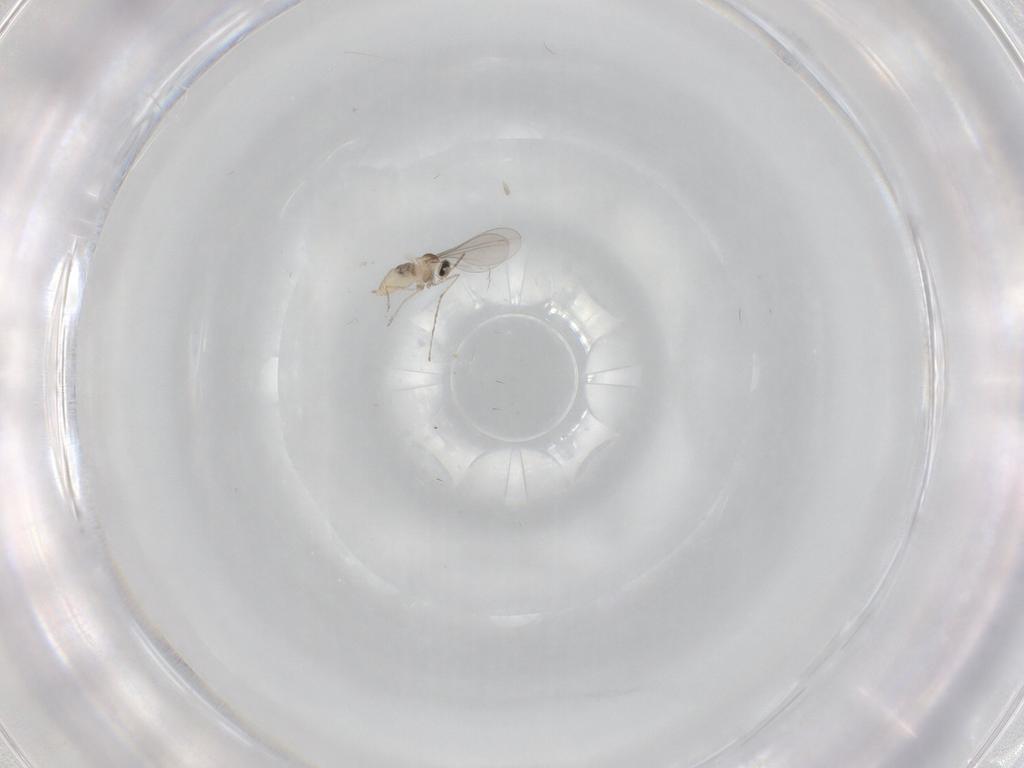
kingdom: Animalia
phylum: Arthropoda
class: Insecta
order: Diptera
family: Cecidomyiidae
